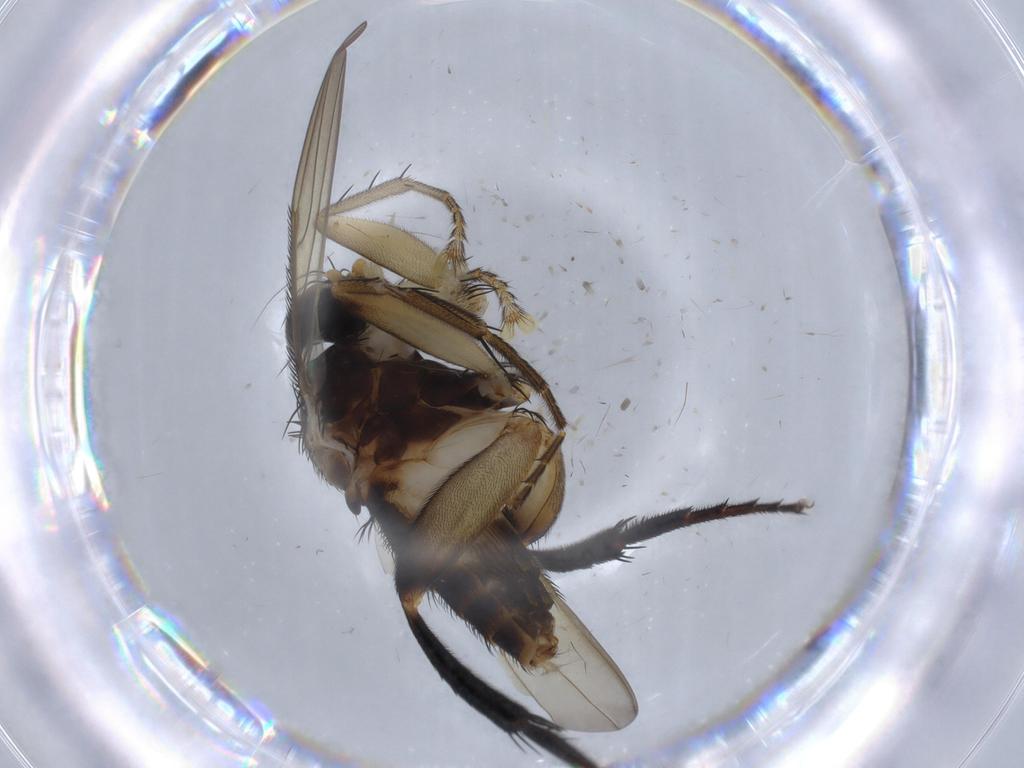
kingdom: Animalia
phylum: Arthropoda
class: Insecta
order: Diptera
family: Phoridae
